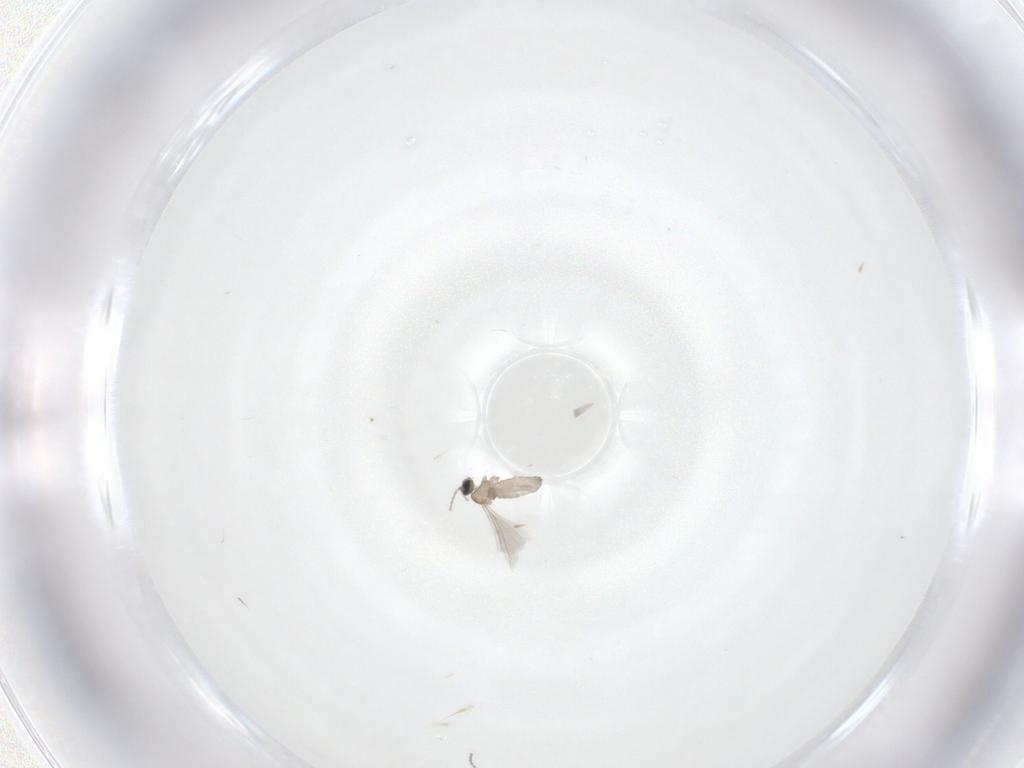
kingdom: Animalia
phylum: Arthropoda
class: Insecta
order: Diptera
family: Cecidomyiidae
